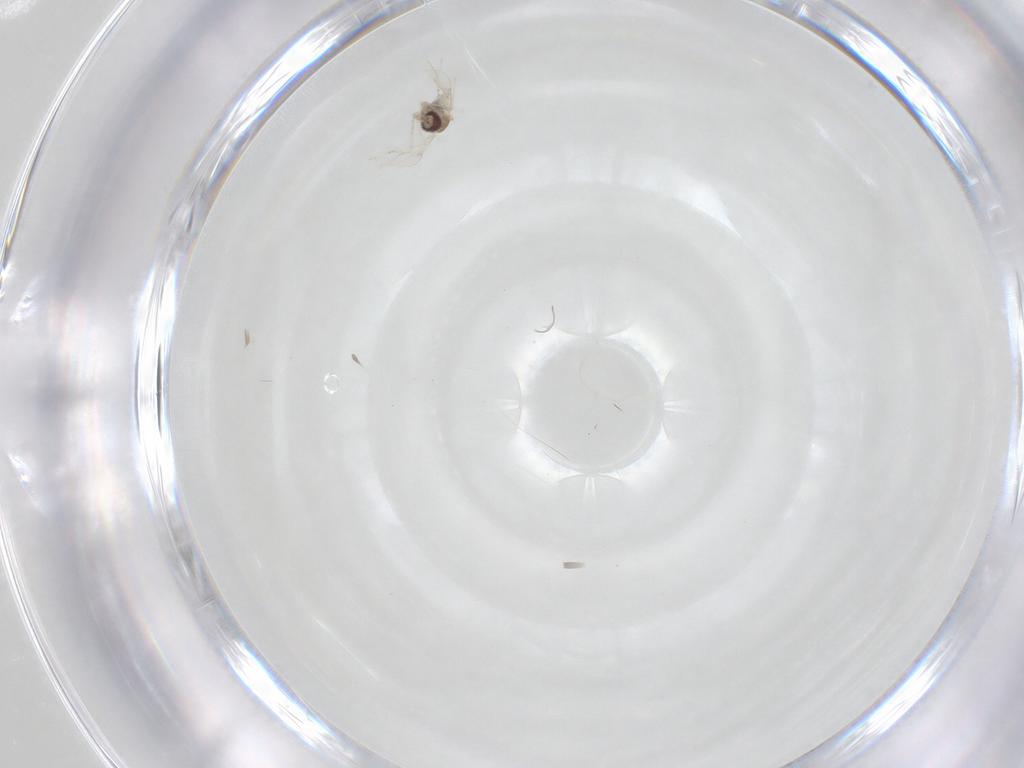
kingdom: Animalia
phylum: Arthropoda
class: Insecta
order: Diptera
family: Cecidomyiidae
